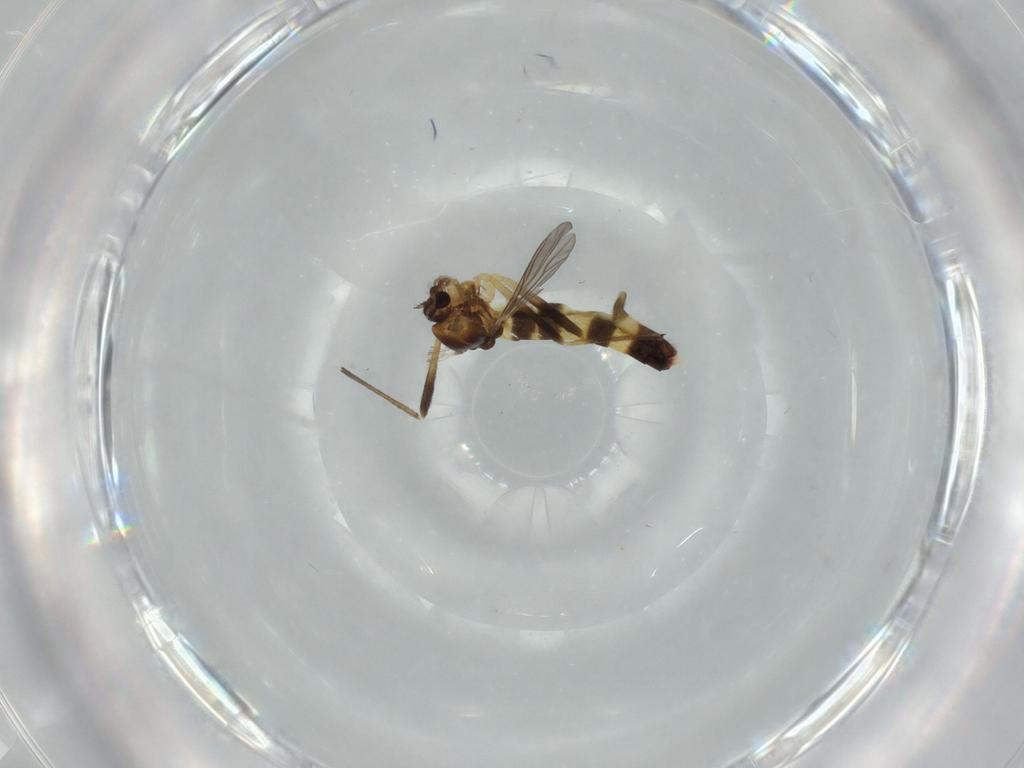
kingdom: Animalia
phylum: Arthropoda
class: Insecta
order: Diptera
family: Chironomidae
